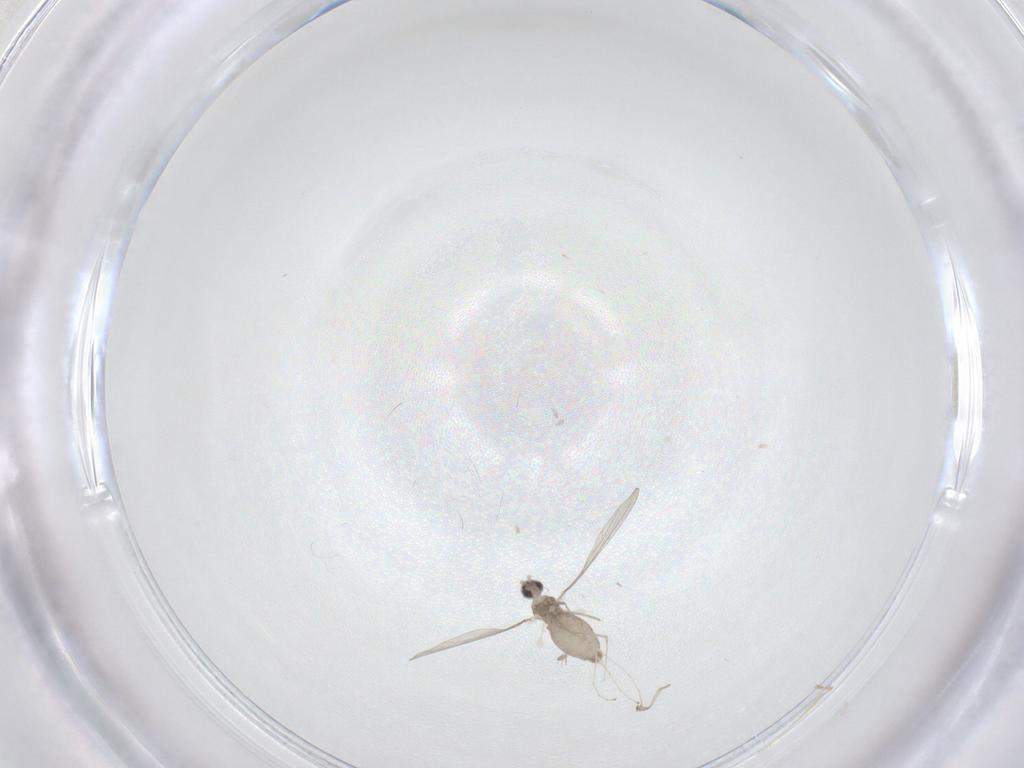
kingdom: Animalia
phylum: Arthropoda
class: Insecta
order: Diptera
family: Chironomidae
